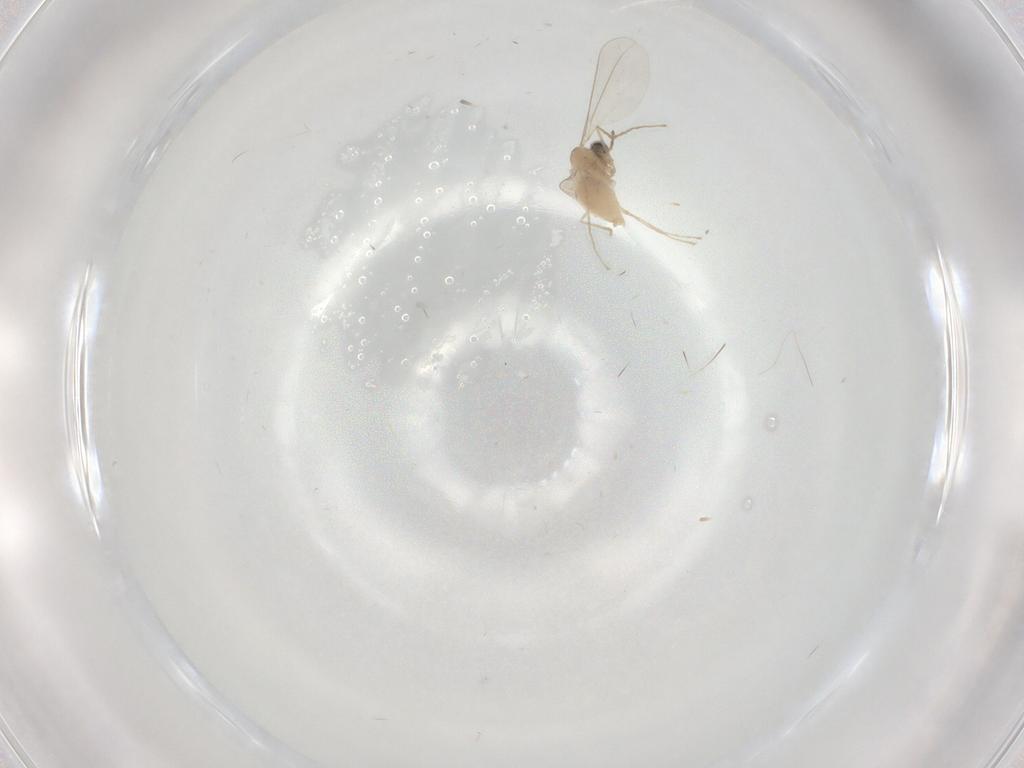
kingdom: Animalia
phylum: Arthropoda
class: Insecta
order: Diptera
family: Cecidomyiidae
